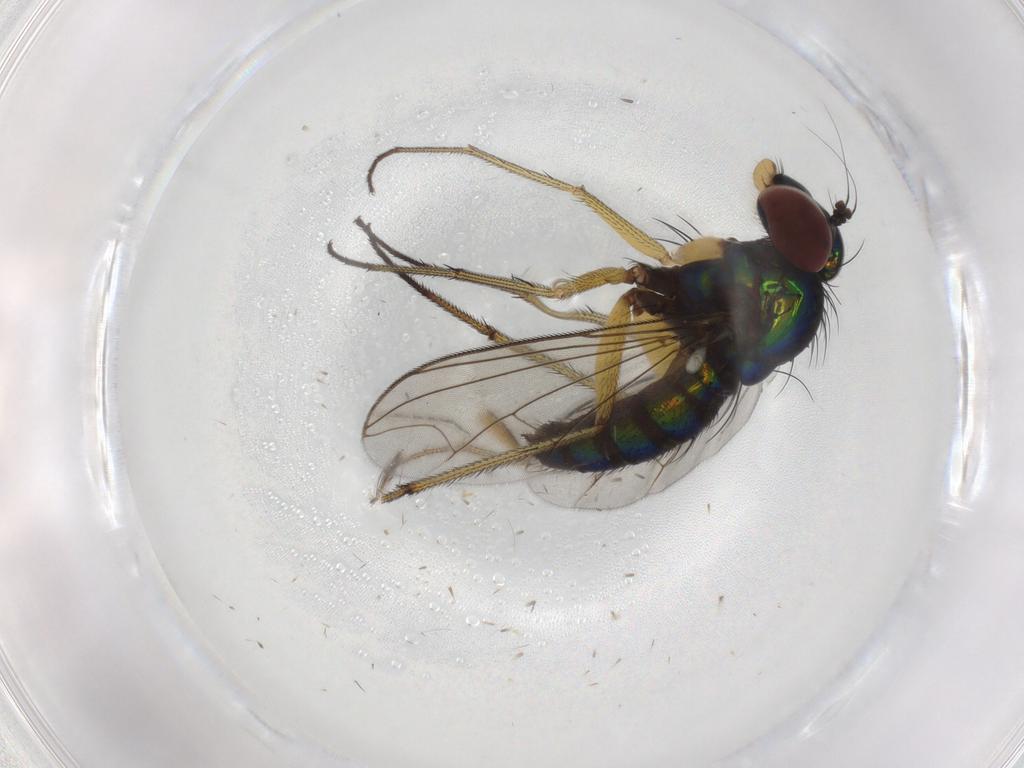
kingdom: Animalia
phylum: Arthropoda
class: Insecta
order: Diptera
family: Dolichopodidae
